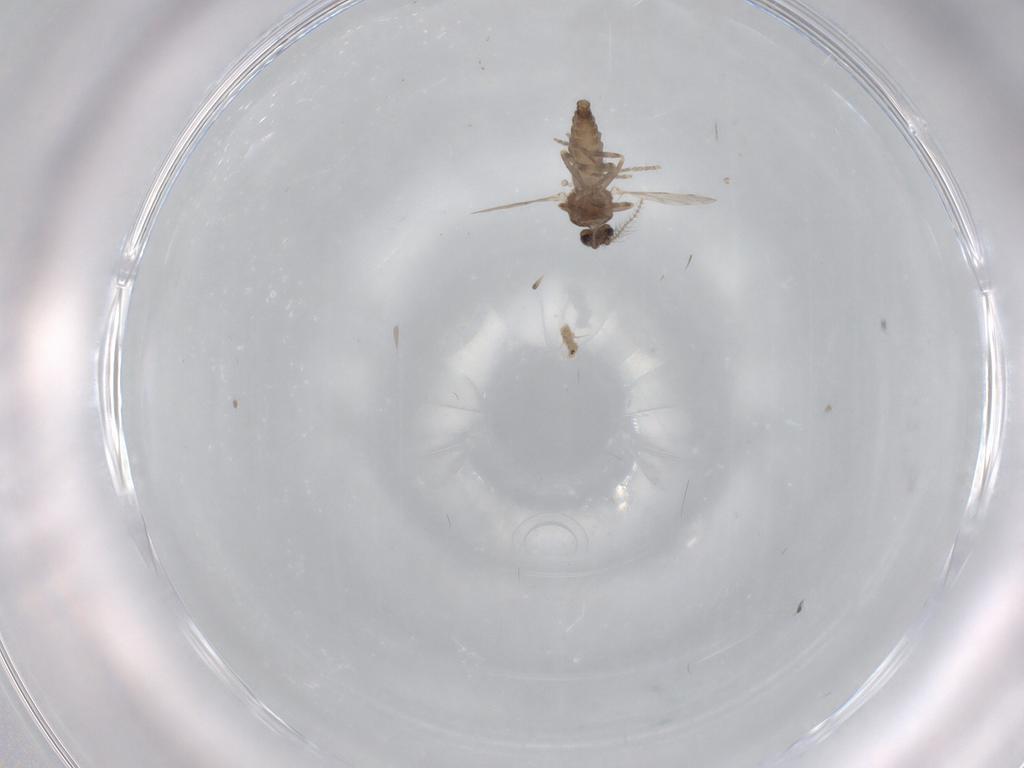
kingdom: Animalia
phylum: Arthropoda
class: Insecta
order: Diptera
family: Ceratopogonidae
